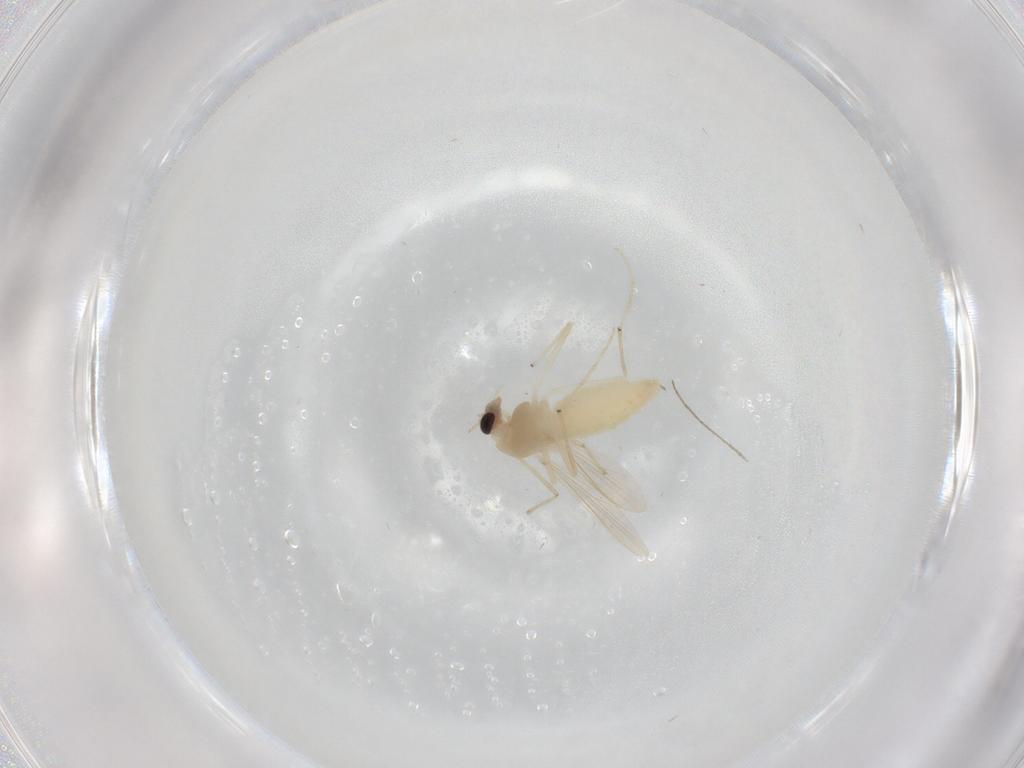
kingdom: Animalia
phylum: Arthropoda
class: Insecta
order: Diptera
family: Chironomidae
